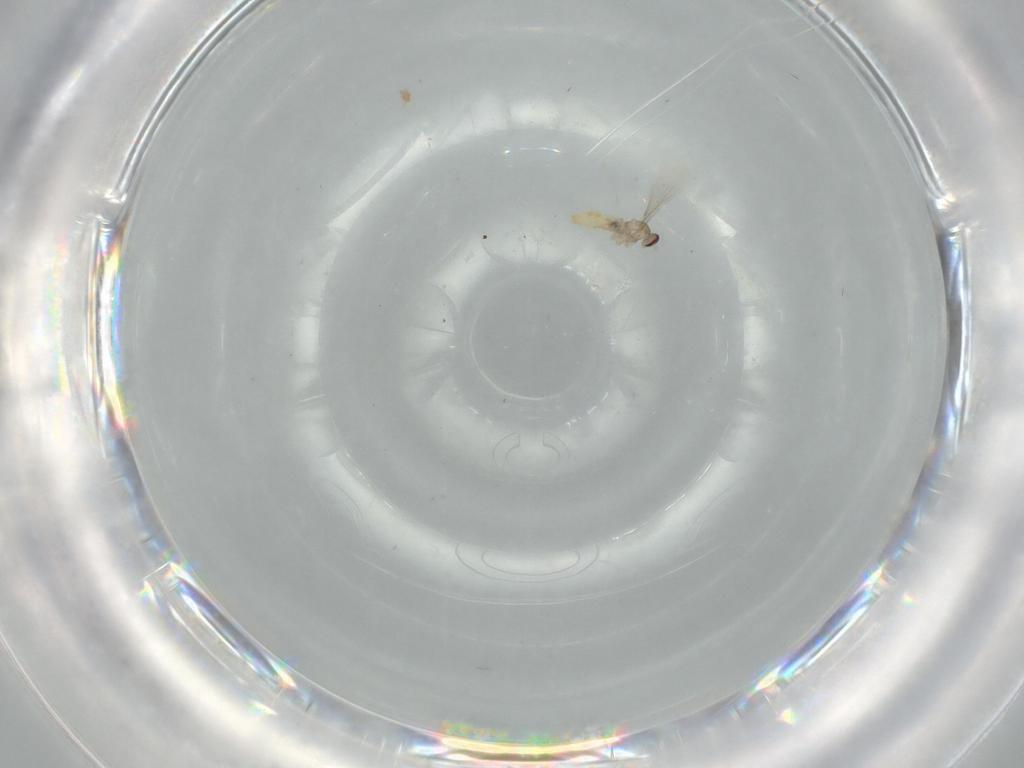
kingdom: Animalia
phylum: Arthropoda
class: Insecta
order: Diptera
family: Cecidomyiidae
